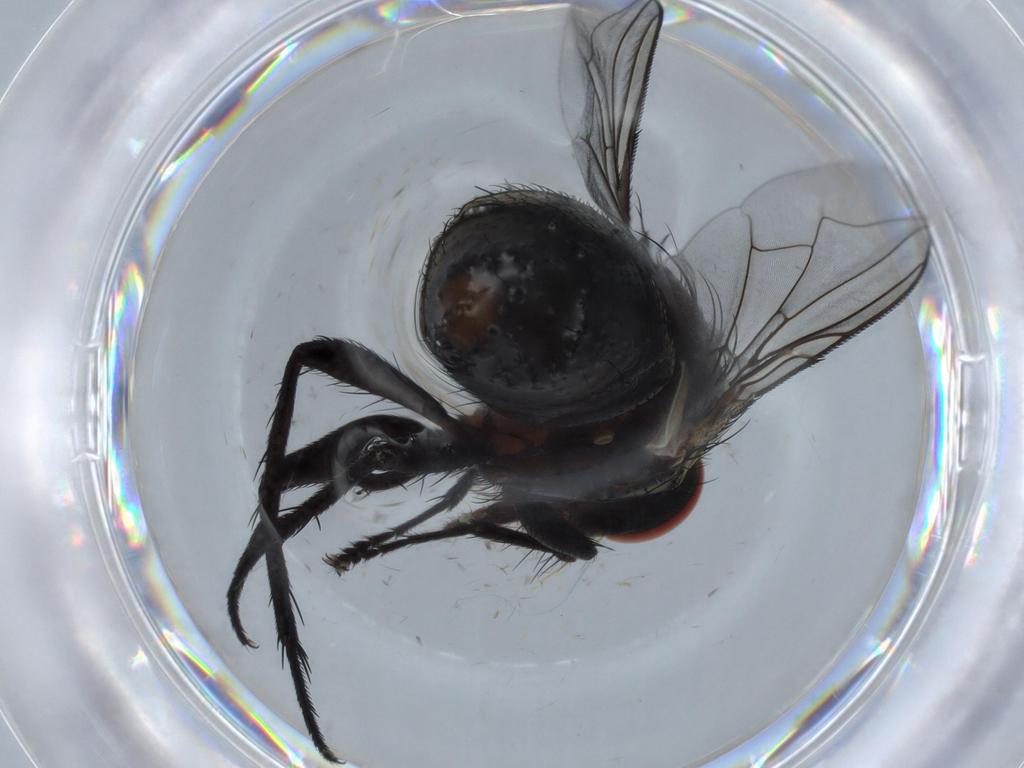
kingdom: Animalia
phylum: Arthropoda
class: Insecta
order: Diptera
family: Sarcophagidae
